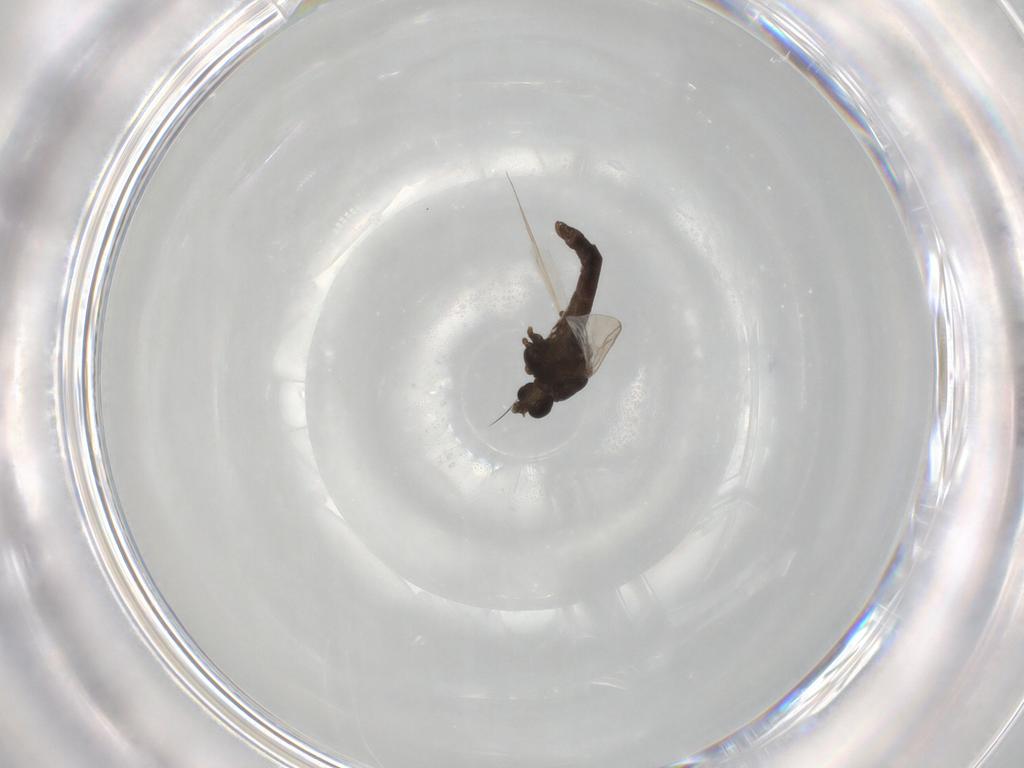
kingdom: Animalia
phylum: Arthropoda
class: Insecta
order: Diptera
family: Chironomidae
